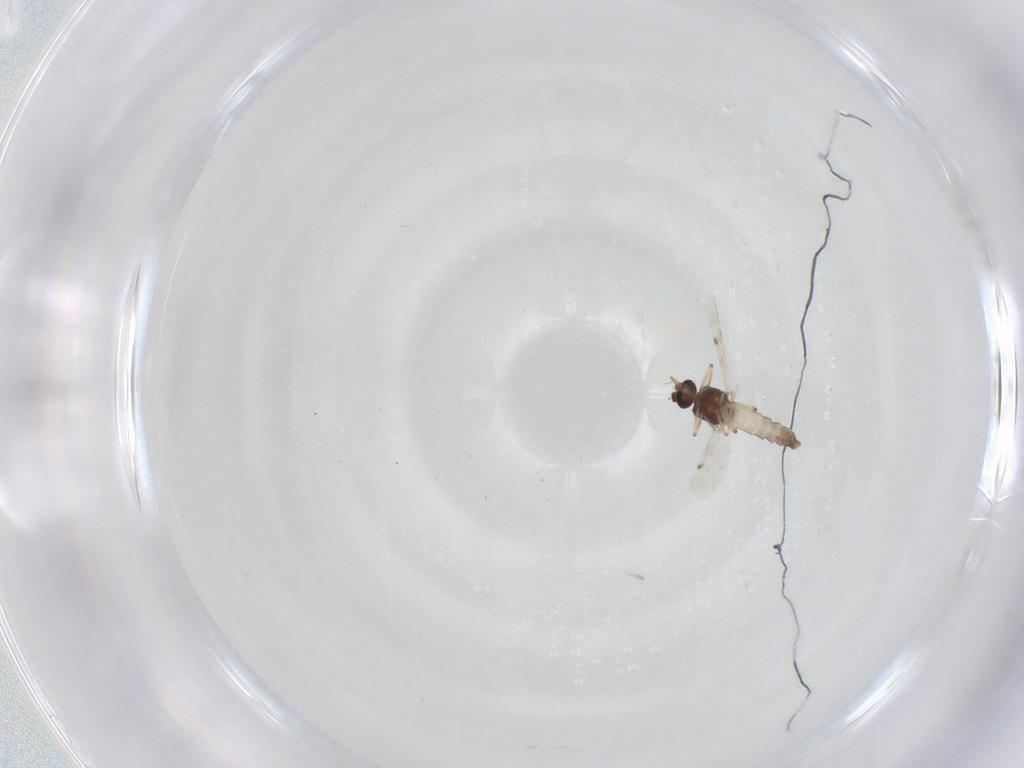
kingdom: Animalia
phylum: Arthropoda
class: Insecta
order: Diptera
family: Ceratopogonidae
